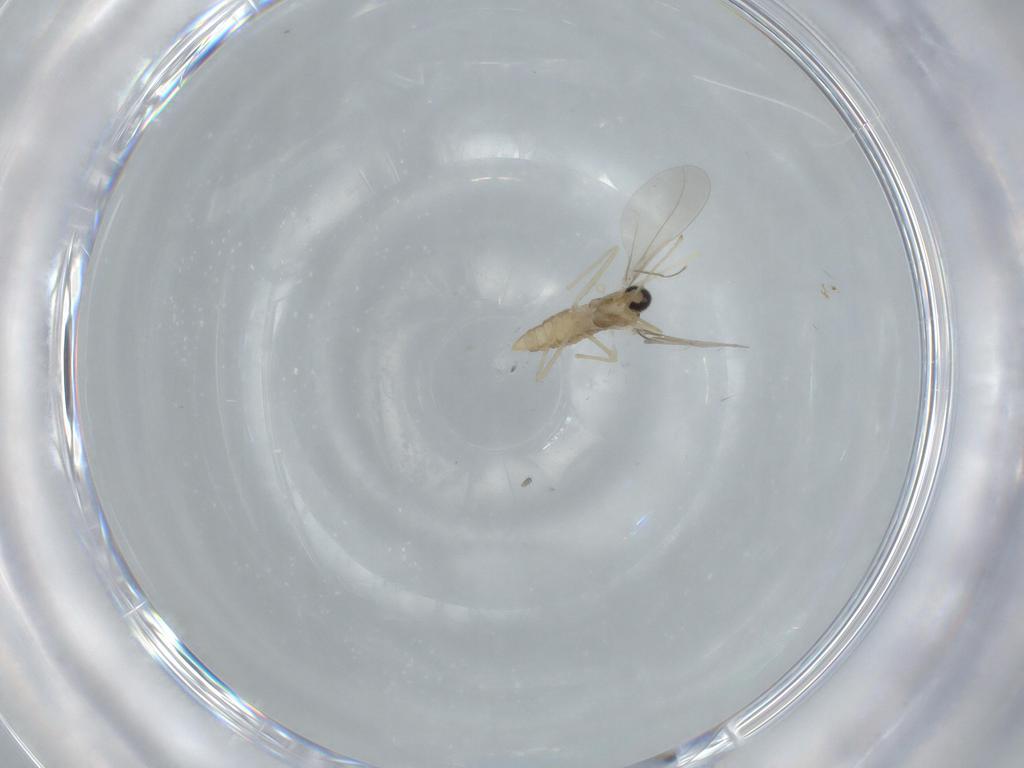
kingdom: Animalia
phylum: Arthropoda
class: Insecta
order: Diptera
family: Cecidomyiidae
